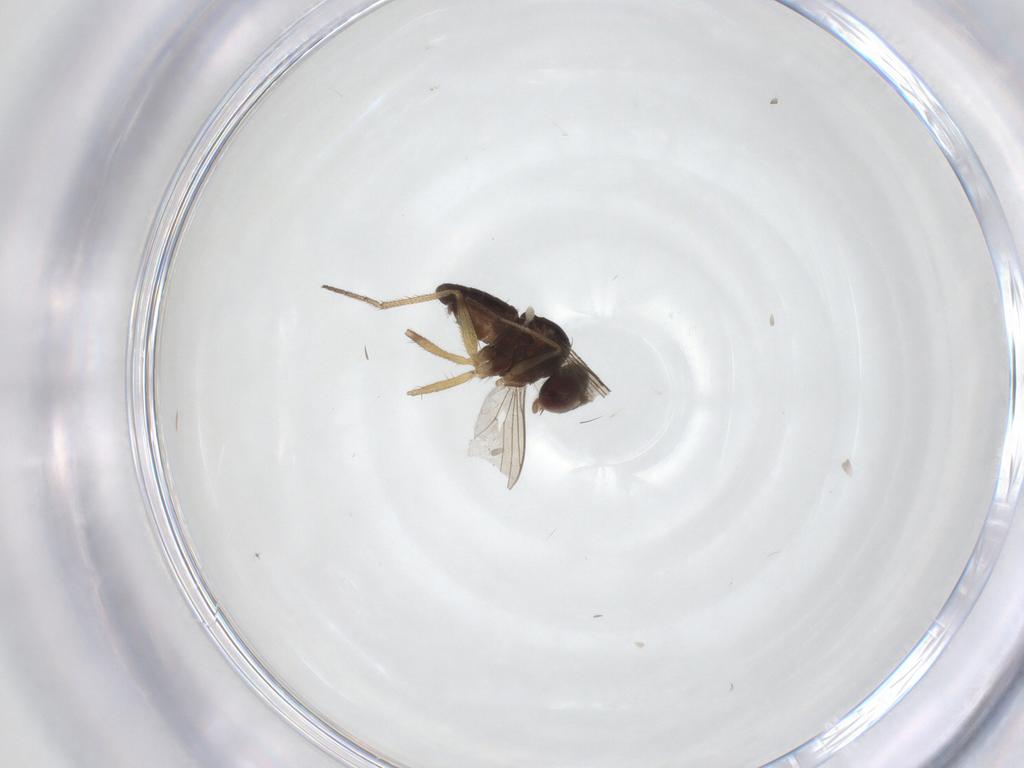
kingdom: Animalia
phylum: Arthropoda
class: Insecta
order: Diptera
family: Dolichopodidae
